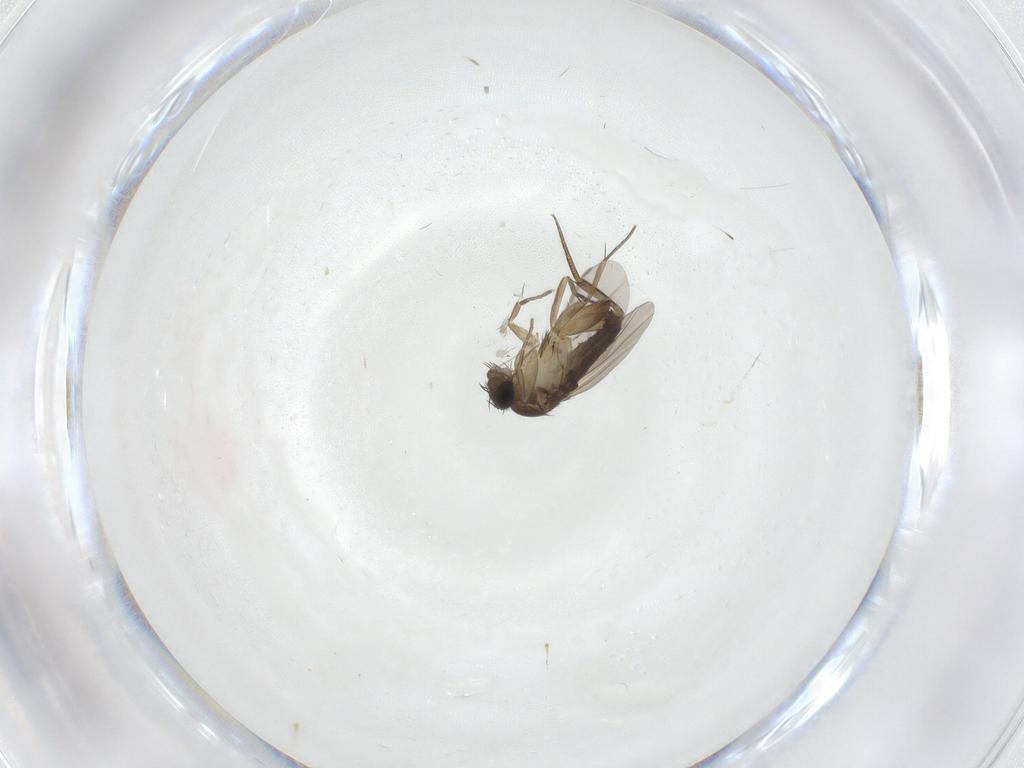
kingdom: Animalia
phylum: Arthropoda
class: Insecta
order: Diptera
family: Phoridae
